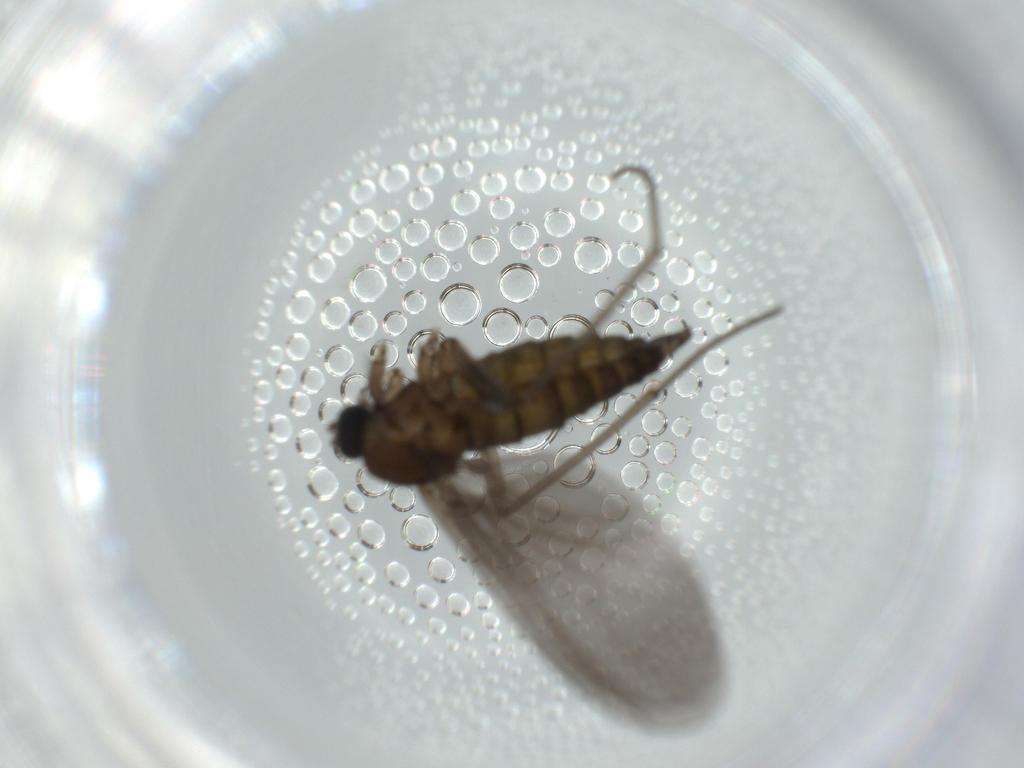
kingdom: Animalia
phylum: Arthropoda
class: Insecta
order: Diptera
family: Sciaridae
